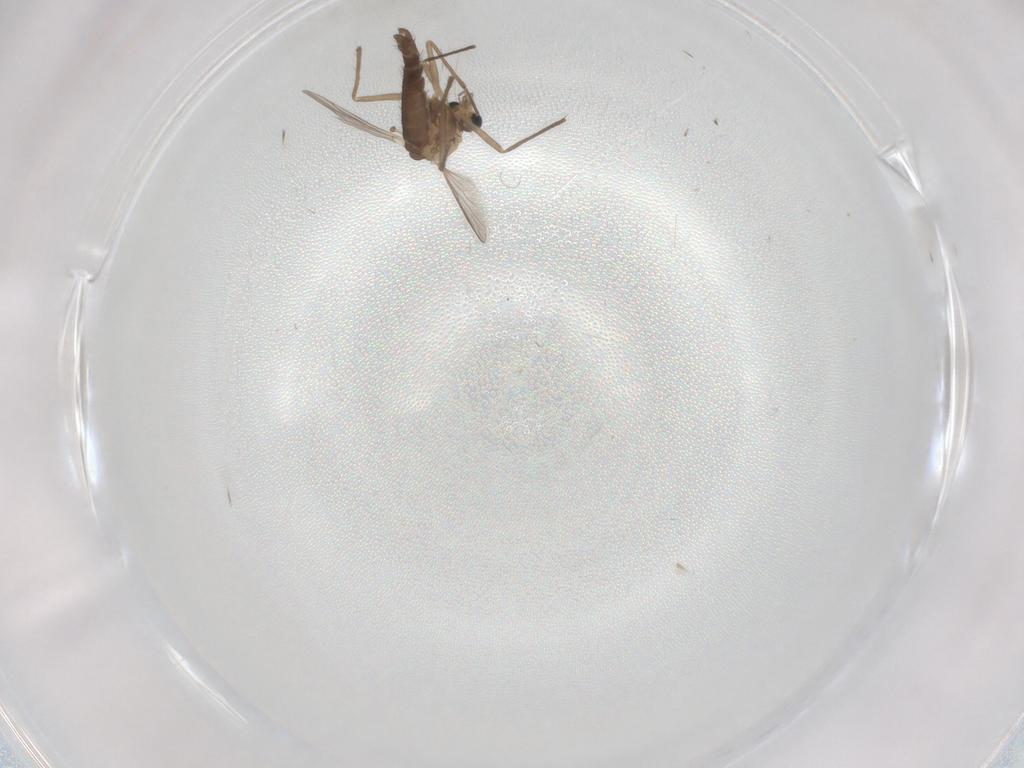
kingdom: Animalia
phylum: Arthropoda
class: Insecta
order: Diptera
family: Chironomidae
